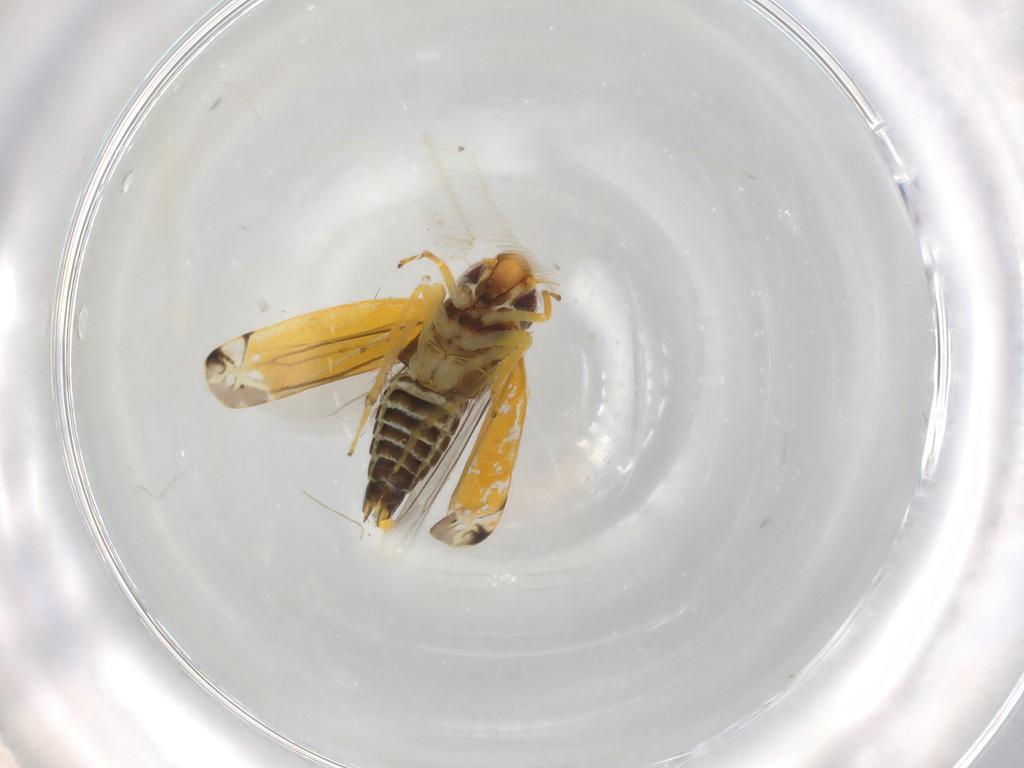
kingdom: Animalia
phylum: Arthropoda
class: Insecta
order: Hemiptera
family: Cicadellidae
